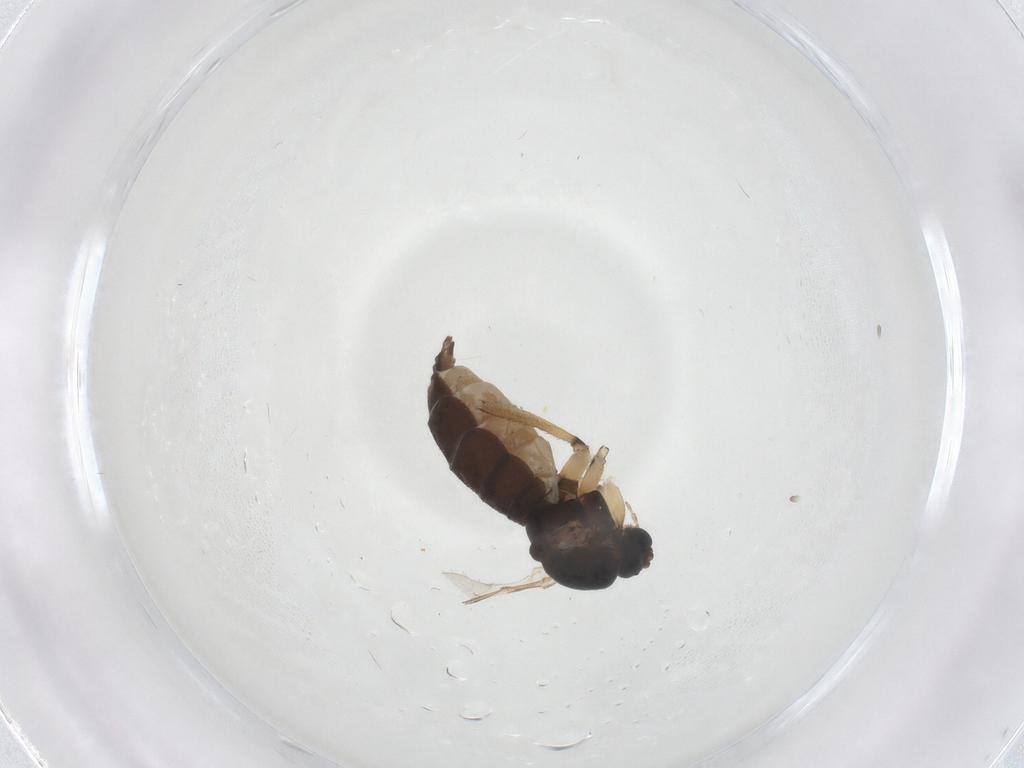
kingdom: Animalia
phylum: Arthropoda
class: Insecta
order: Diptera
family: Sciaridae
